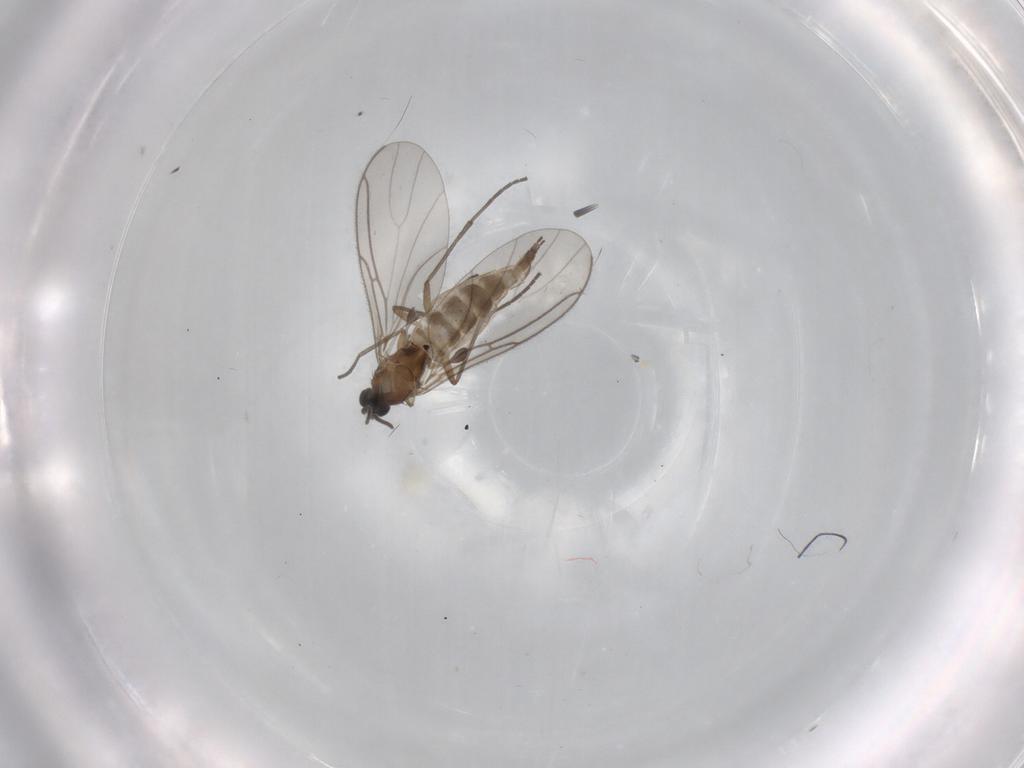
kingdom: Animalia
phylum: Arthropoda
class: Insecta
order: Diptera
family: Sciaridae
